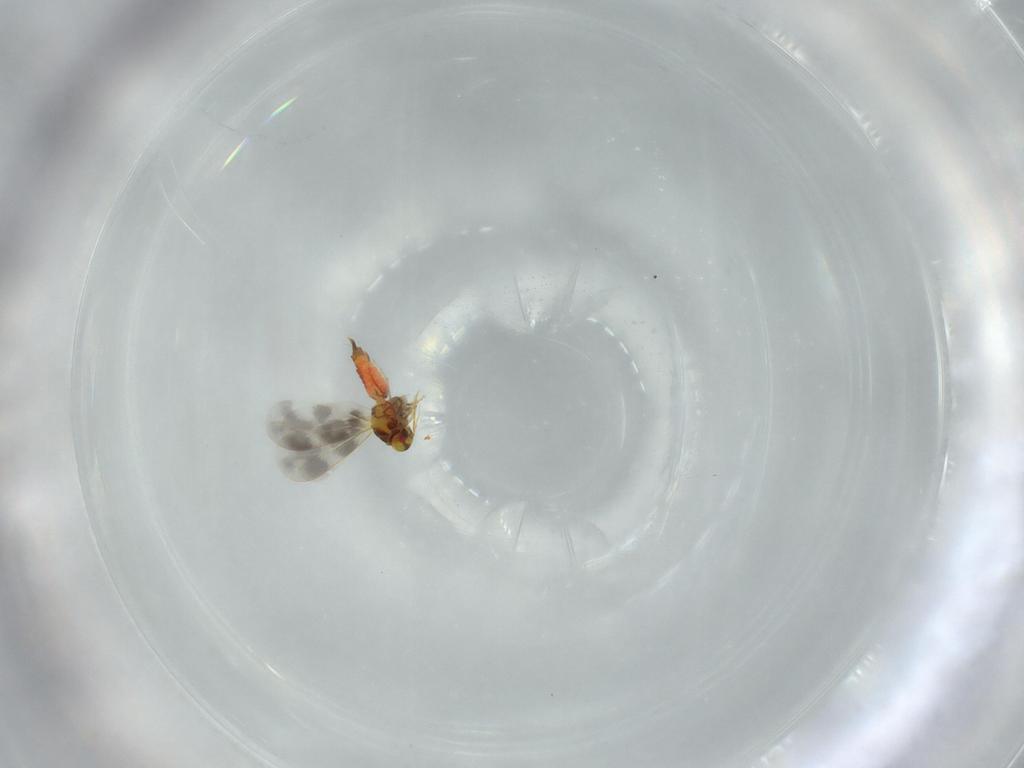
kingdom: Animalia
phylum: Arthropoda
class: Insecta
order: Hemiptera
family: Aleyrodidae
